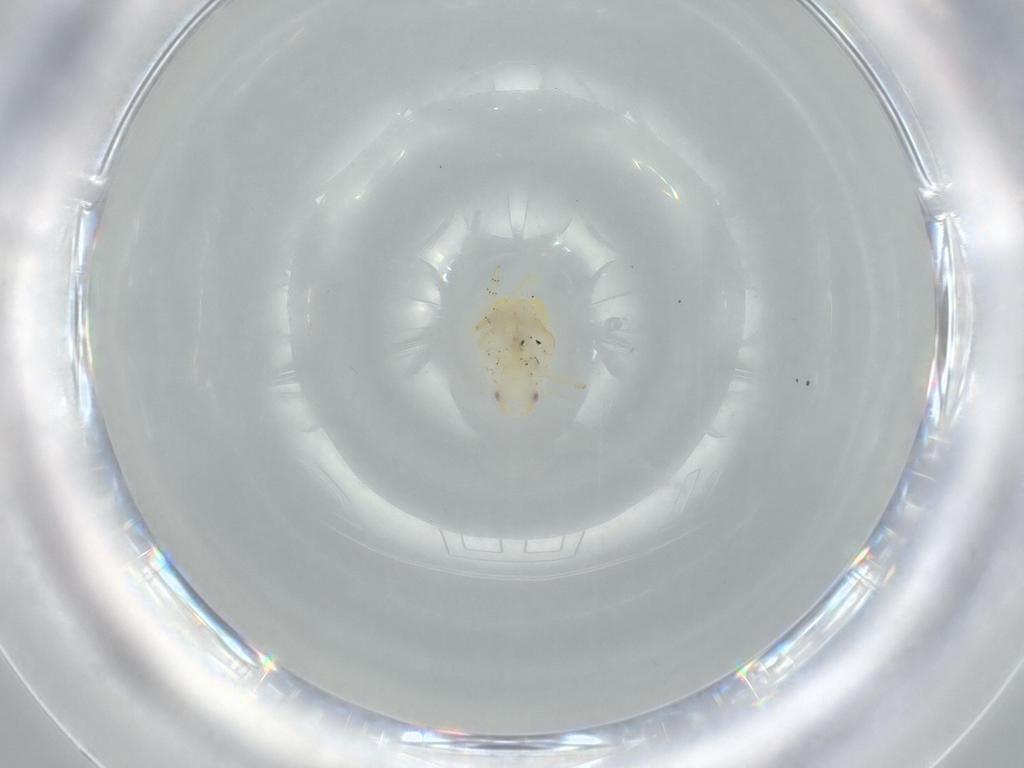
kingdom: Animalia
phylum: Arthropoda
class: Insecta
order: Hemiptera
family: Flatidae
